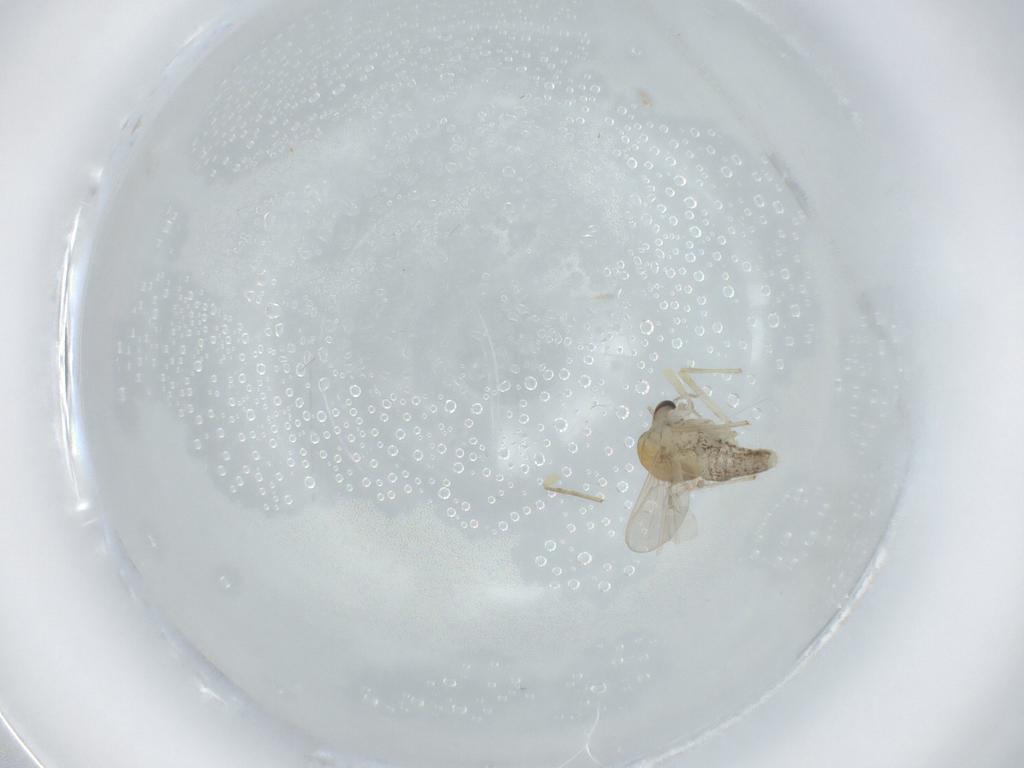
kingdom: Animalia
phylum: Arthropoda
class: Insecta
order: Diptera
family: Chironomidae
